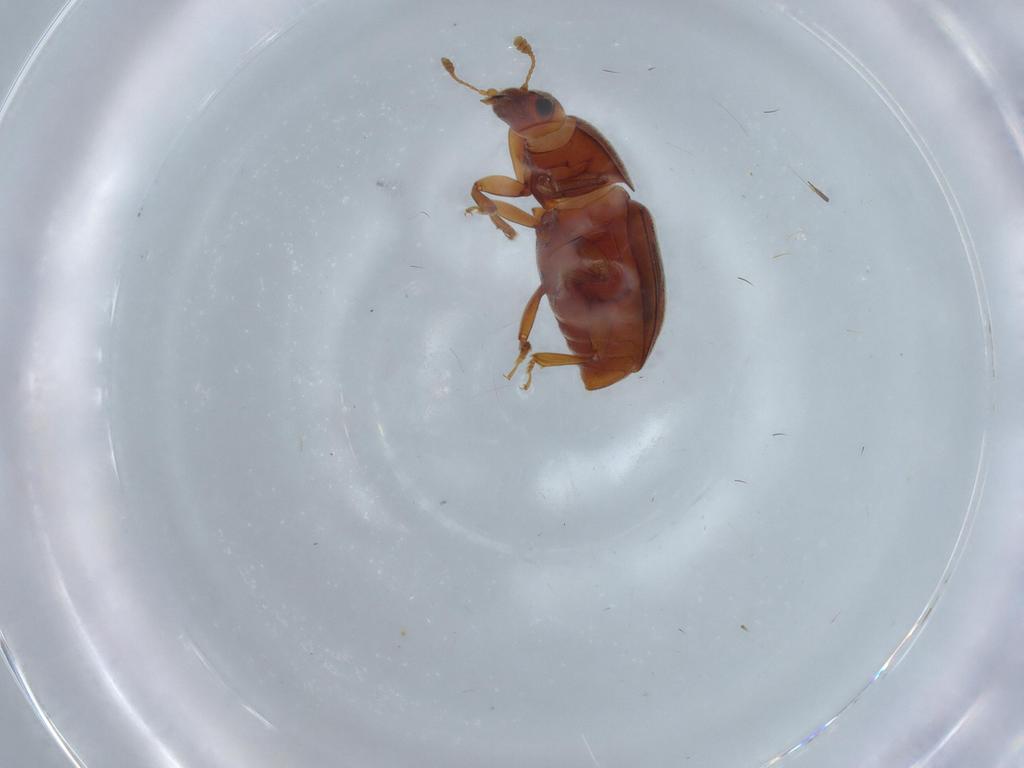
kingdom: Animalia
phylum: Arthropoda
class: Insecta
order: Coleoptera
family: Nitidulidae
